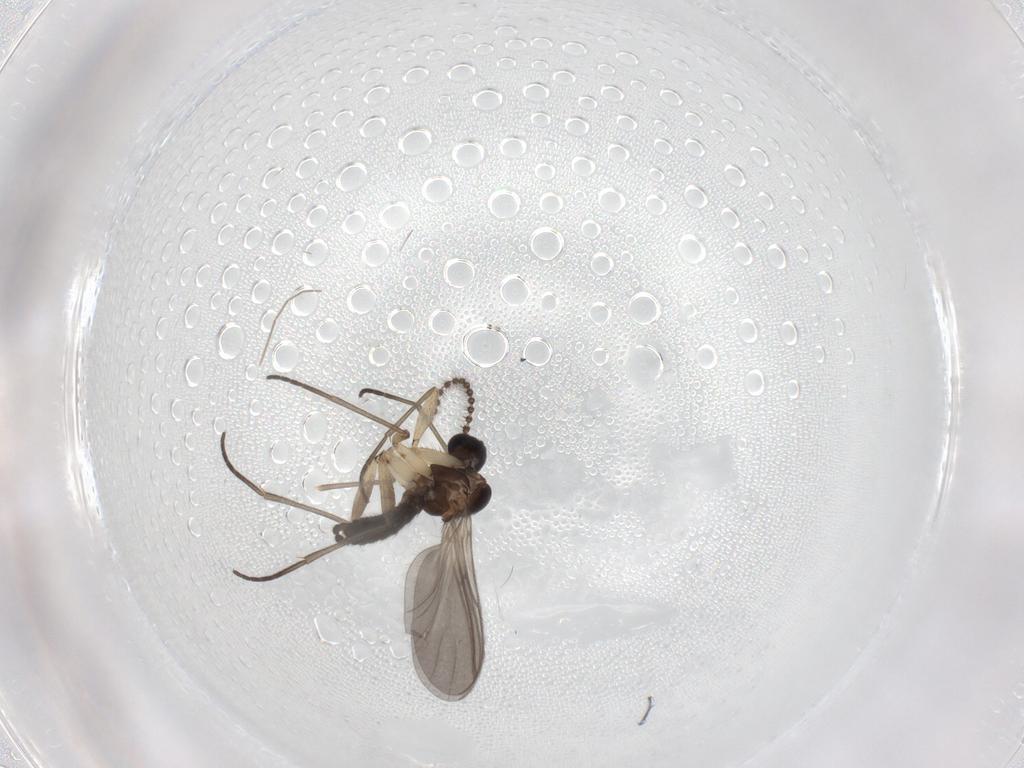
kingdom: Animalia
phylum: Arthropoda
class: Insecta
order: Diptera
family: Sciaridae
